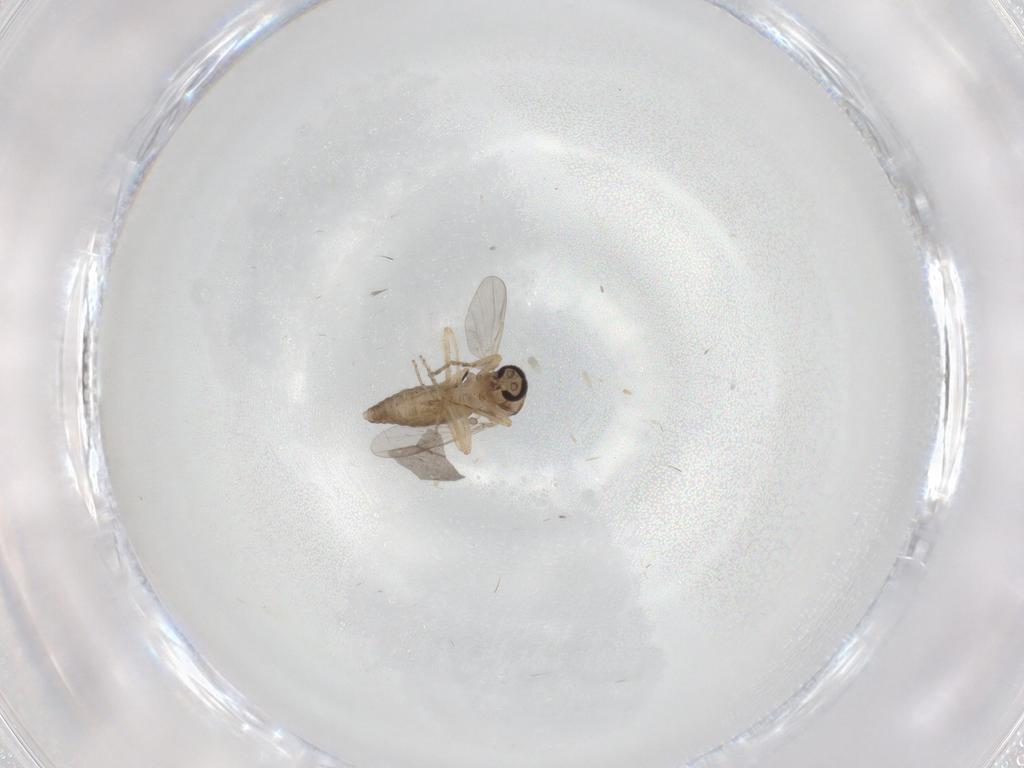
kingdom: Animalia
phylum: Arthropoda
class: Insecta
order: Diptera
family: Ceratopogonidae
